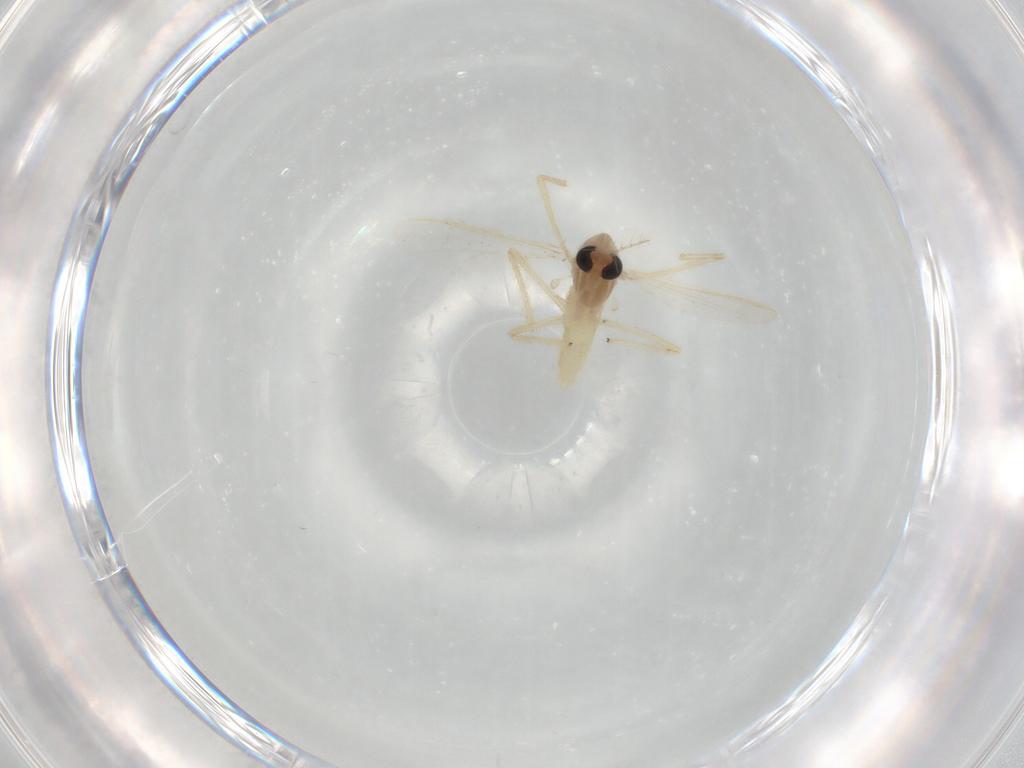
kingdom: Animalia
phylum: Arthropoda
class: Insecta
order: Diptera
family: Chironomidae
